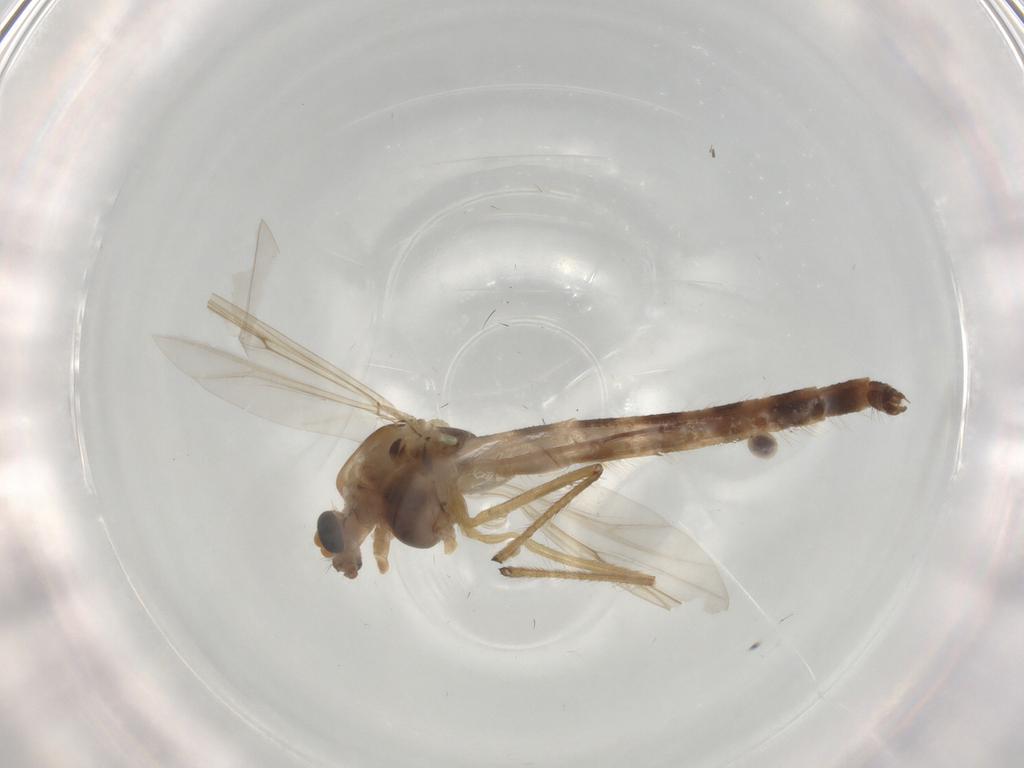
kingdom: Animalia
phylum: Arthropoda
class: Insecta
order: Diptera
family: Chironomidae
